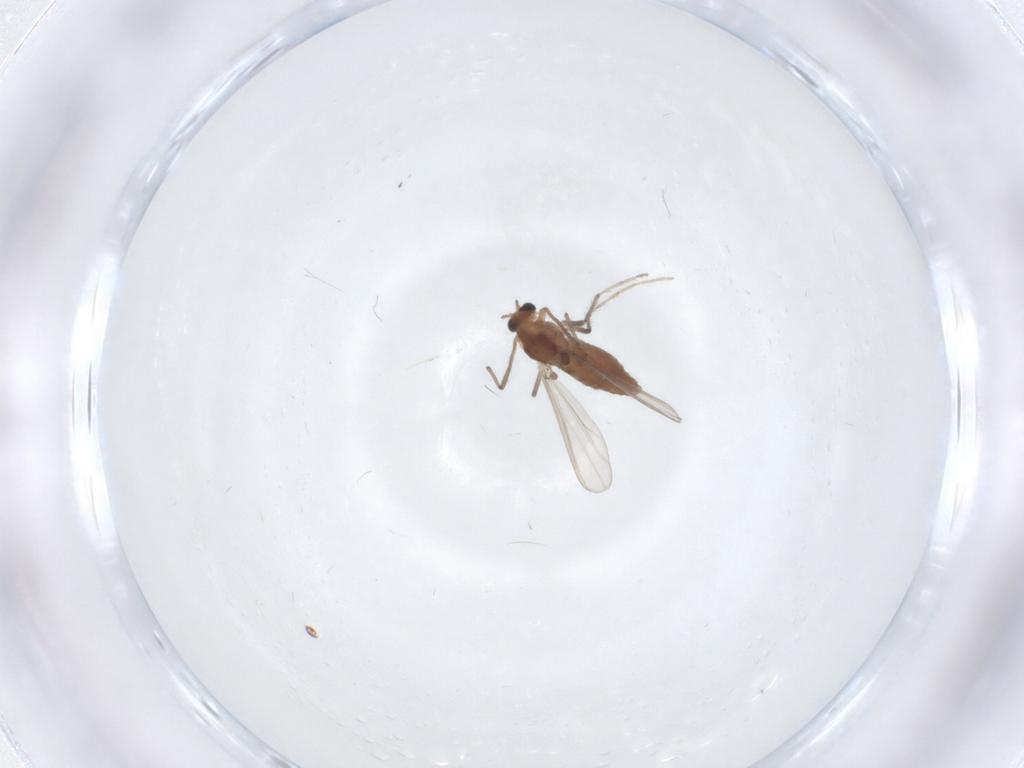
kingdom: Animalia
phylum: Arthropoda
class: Insecta
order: Diptera
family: Chironomidae
